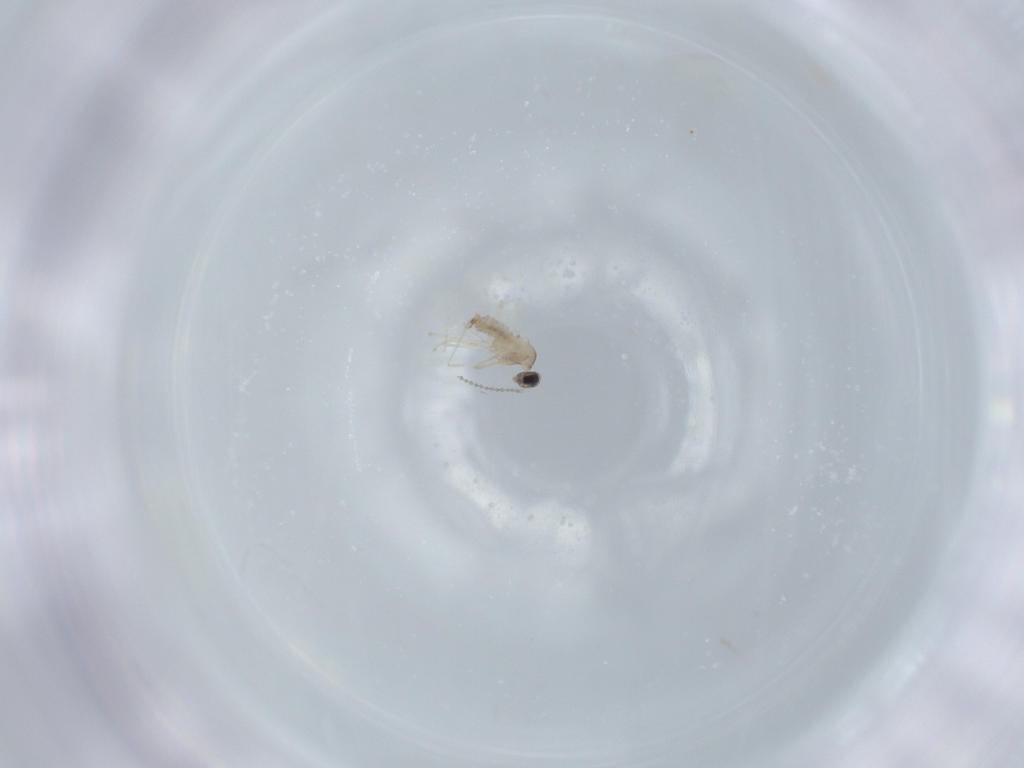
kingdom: Animalia
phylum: Arthropoda
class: Insecta
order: Diptera
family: Cecidomyiidae
